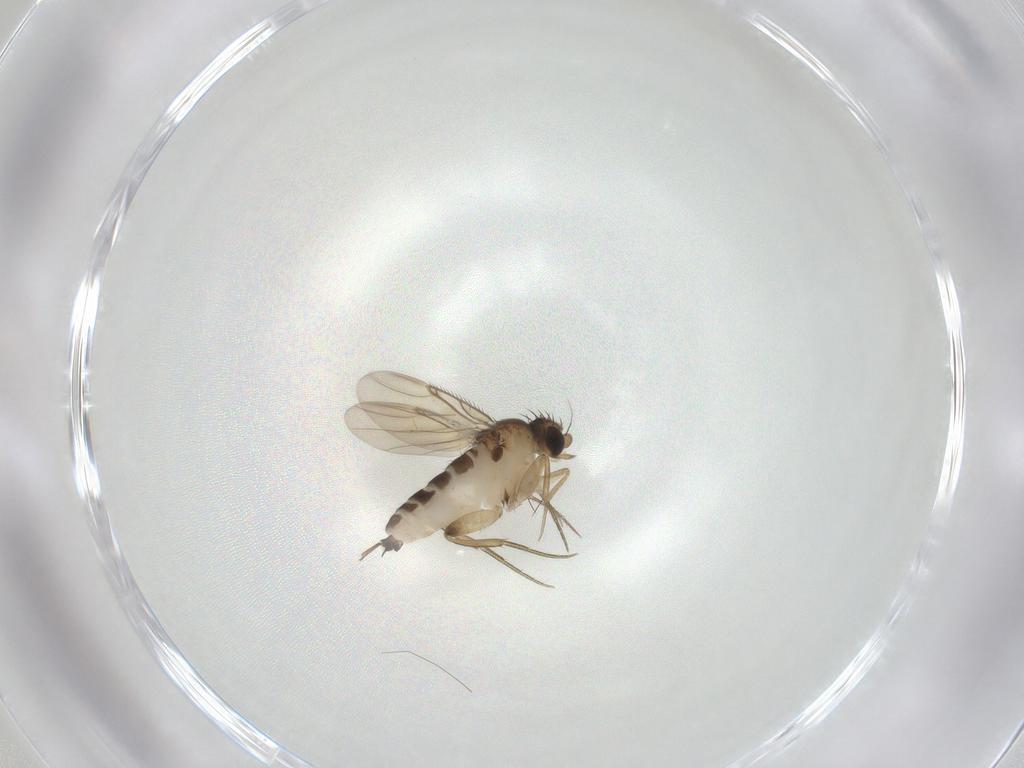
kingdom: Animalia
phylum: Arthropoda
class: Insecta
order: Diptera
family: Phoridae
